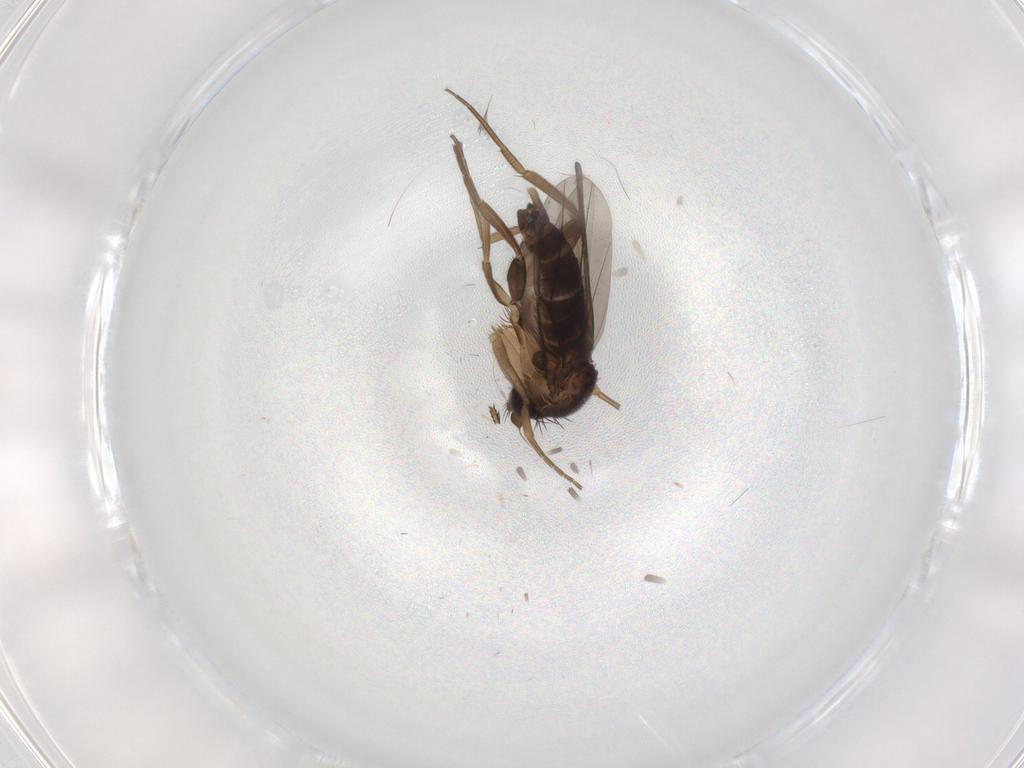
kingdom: Animalia
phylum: Arthropoda
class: Insecta
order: Diptera
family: Phoridae
